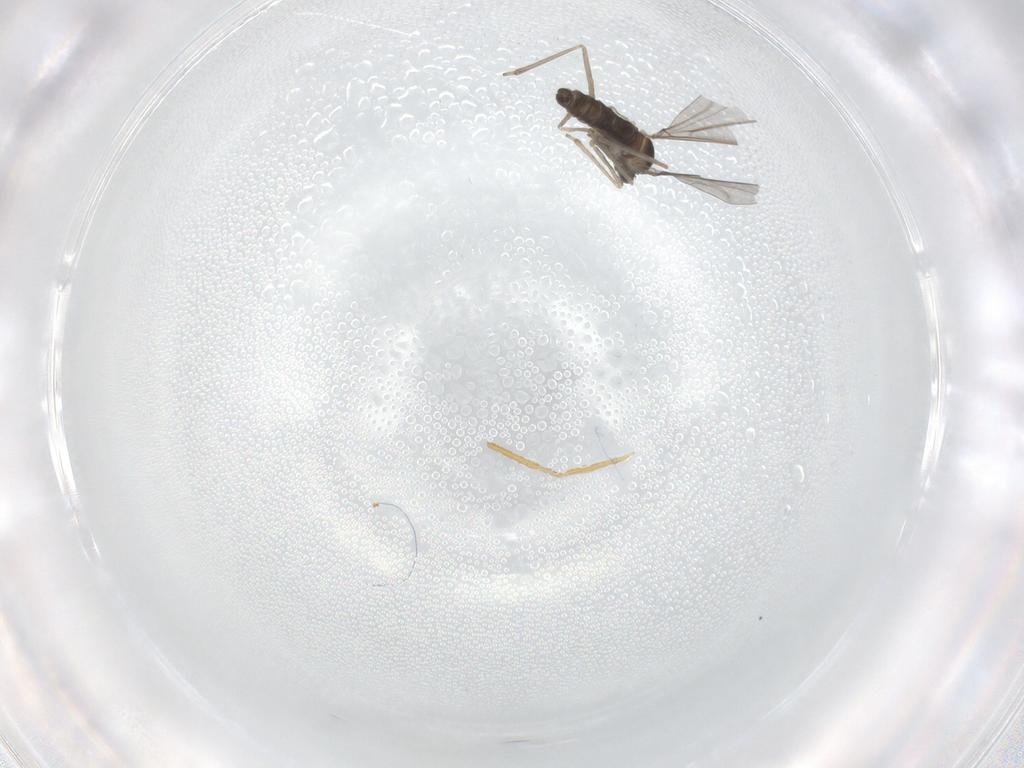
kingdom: Animalia
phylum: Arthropoda
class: Insecta
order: Diptera
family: Cecidomyiidae
